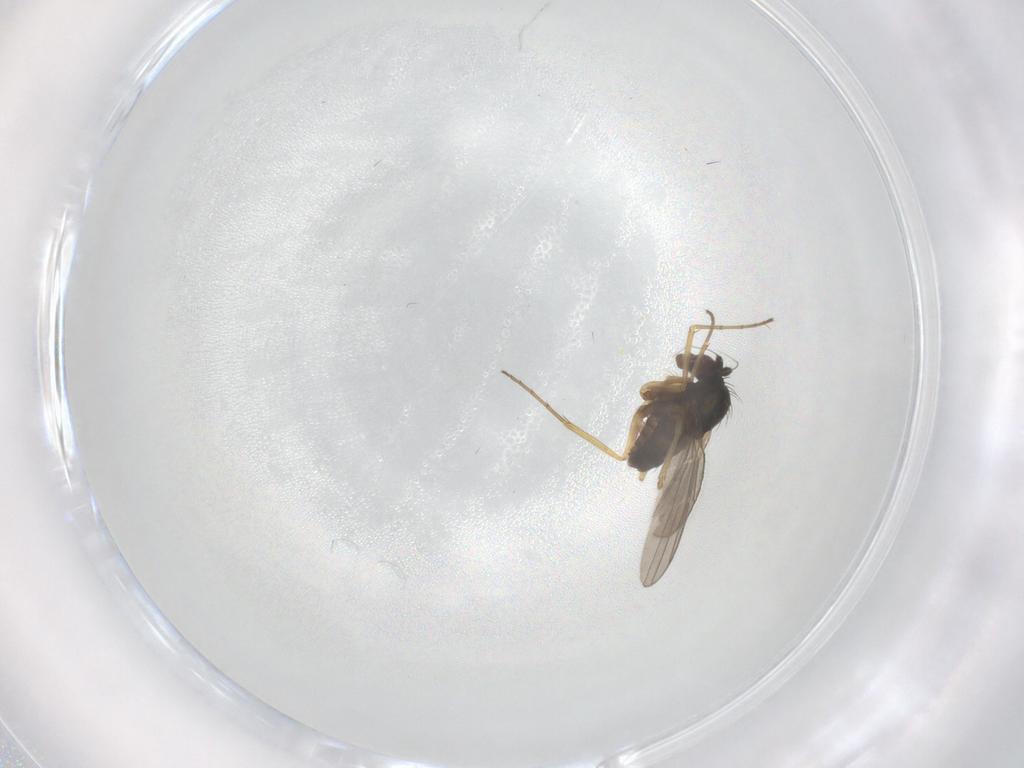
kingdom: Animalia
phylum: Arthropoda
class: Insecta
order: Diptera
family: Dolichopodidae
